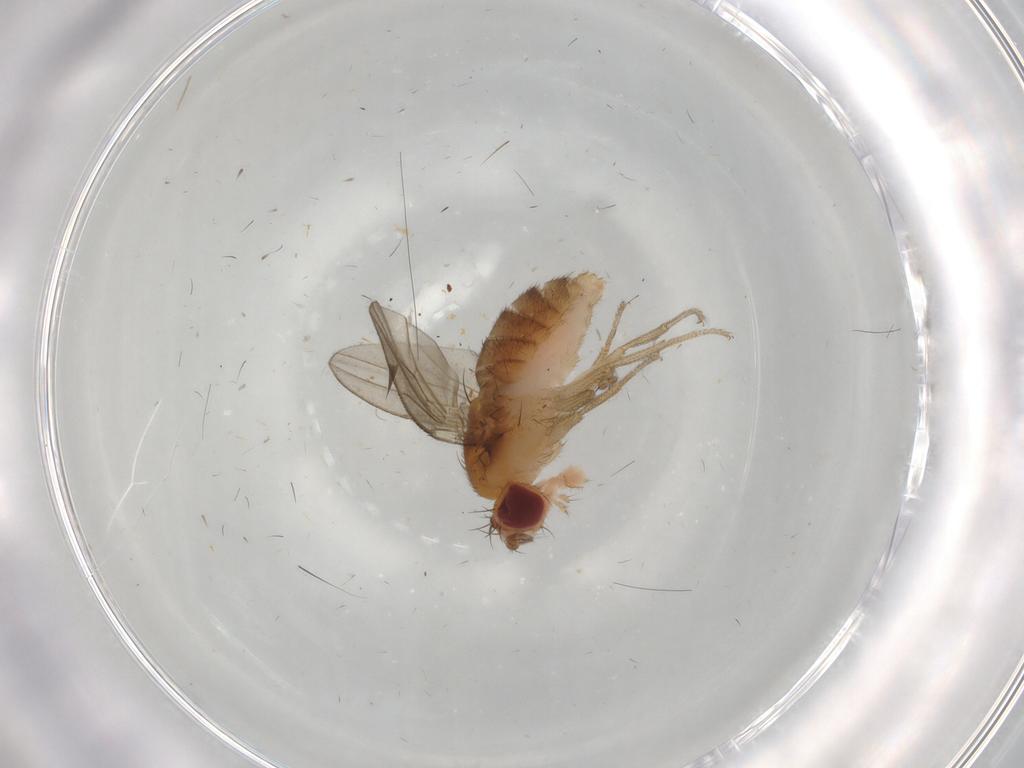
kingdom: Animalia
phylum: Arthropoda
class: Insecta
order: Diptera
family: Drosophilidae
